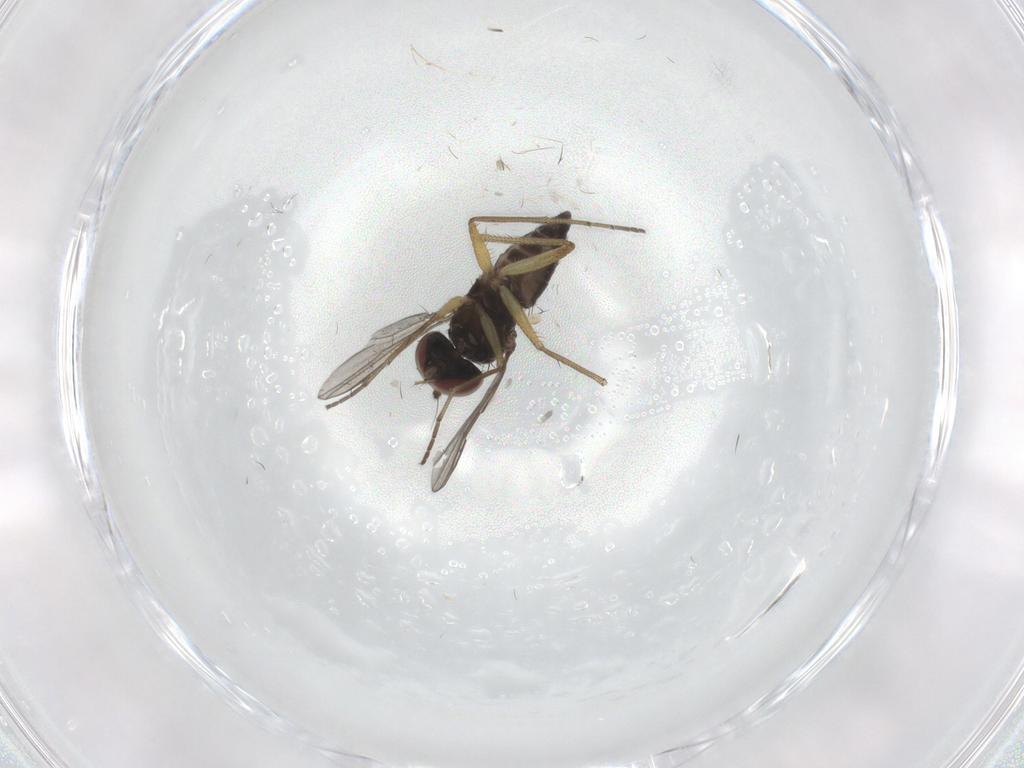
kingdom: Animalia
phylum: Arthropoda
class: Insecta
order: Diptera
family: Dolichopodidae
